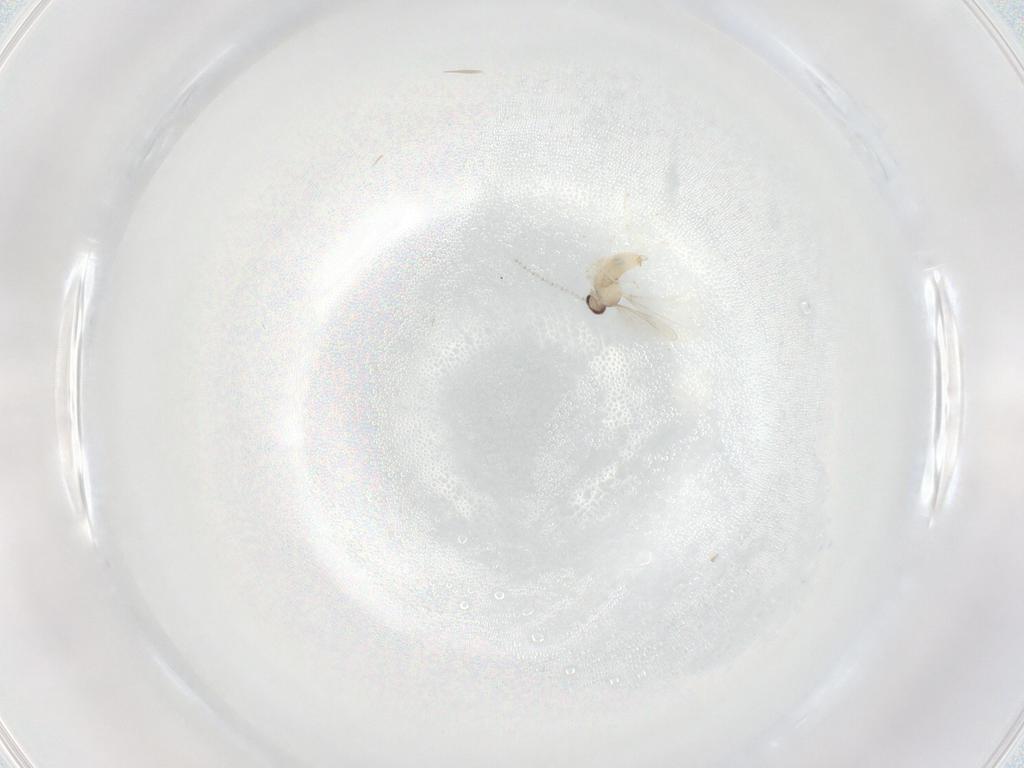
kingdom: Animalia
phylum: Arthropoda
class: Insecta
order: Diptera
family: Cecidomyiidae
